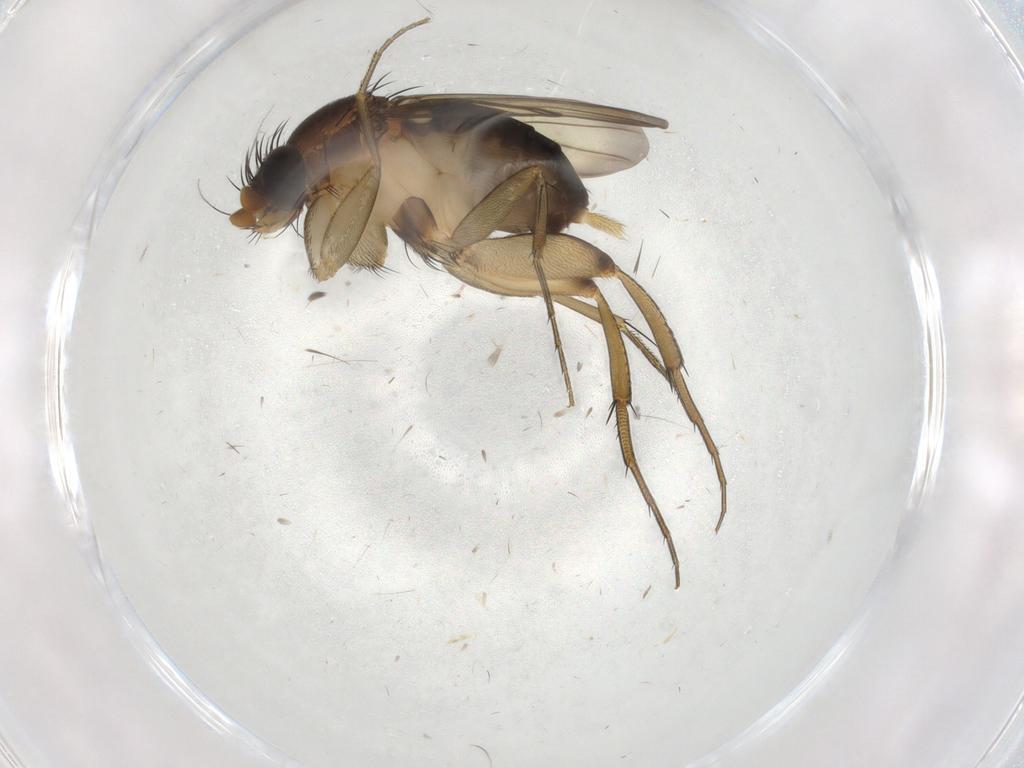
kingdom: Animalia
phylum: Arthropoda
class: Insecta
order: Diptera
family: Phoridae
